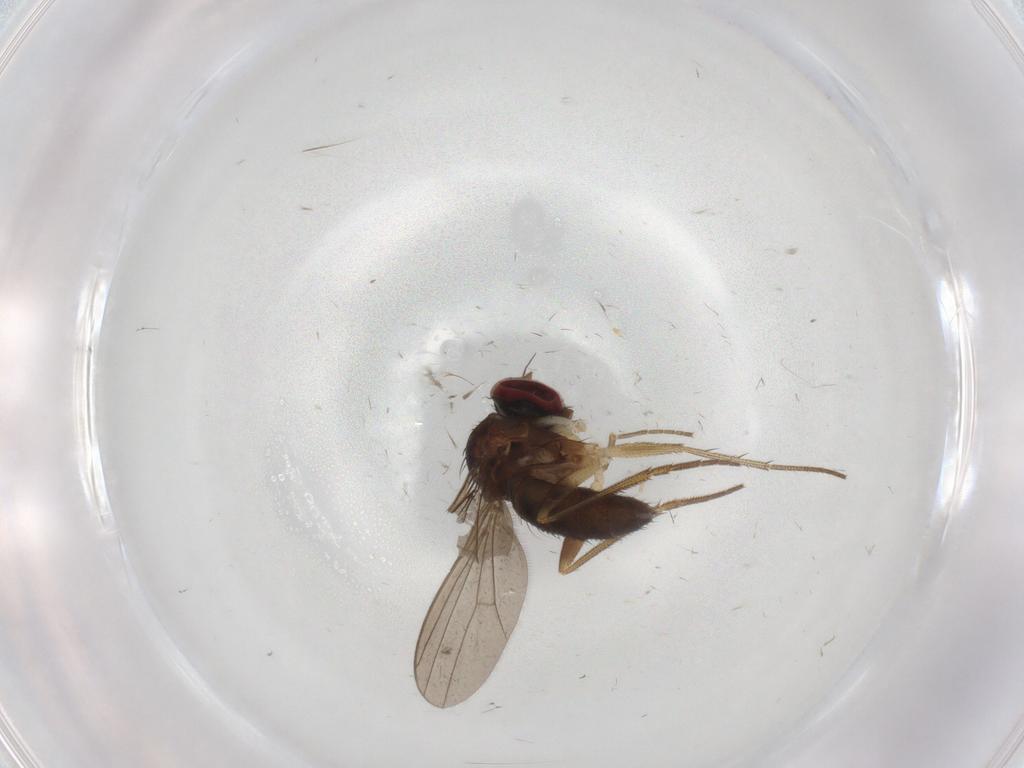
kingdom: Animalia
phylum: Arthropoda
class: Insecta
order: Diptera
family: Dolichopodidae
